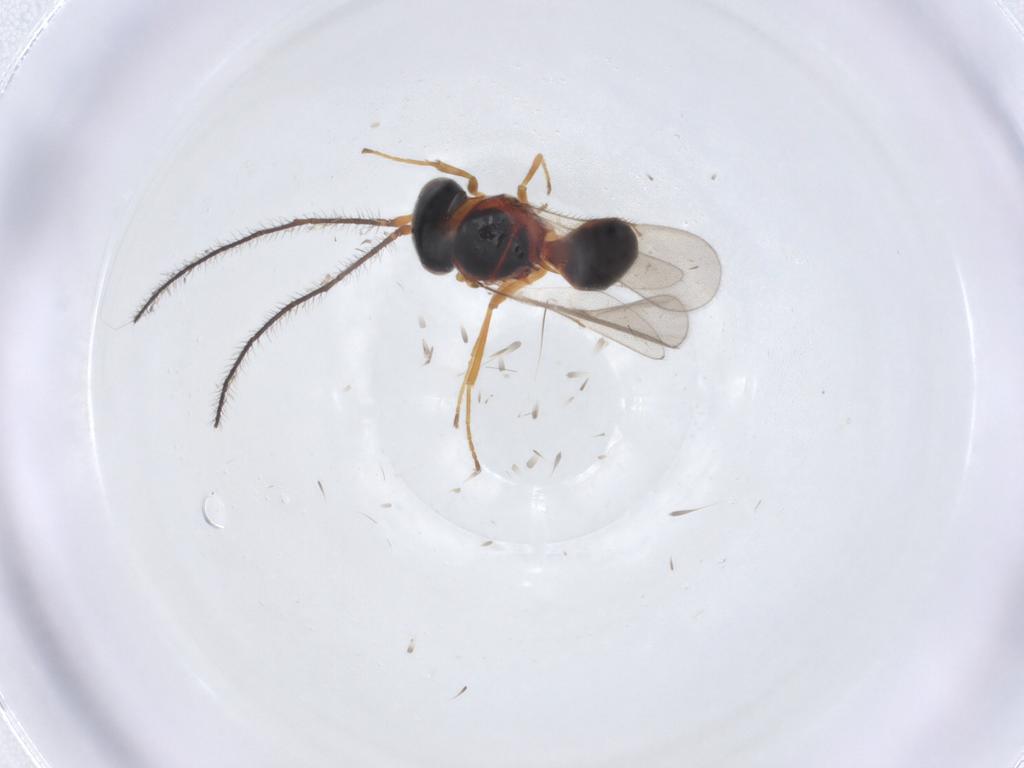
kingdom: Animalia
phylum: Arthropoda
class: Insecta
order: Hymenoptera
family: Scelionidae
